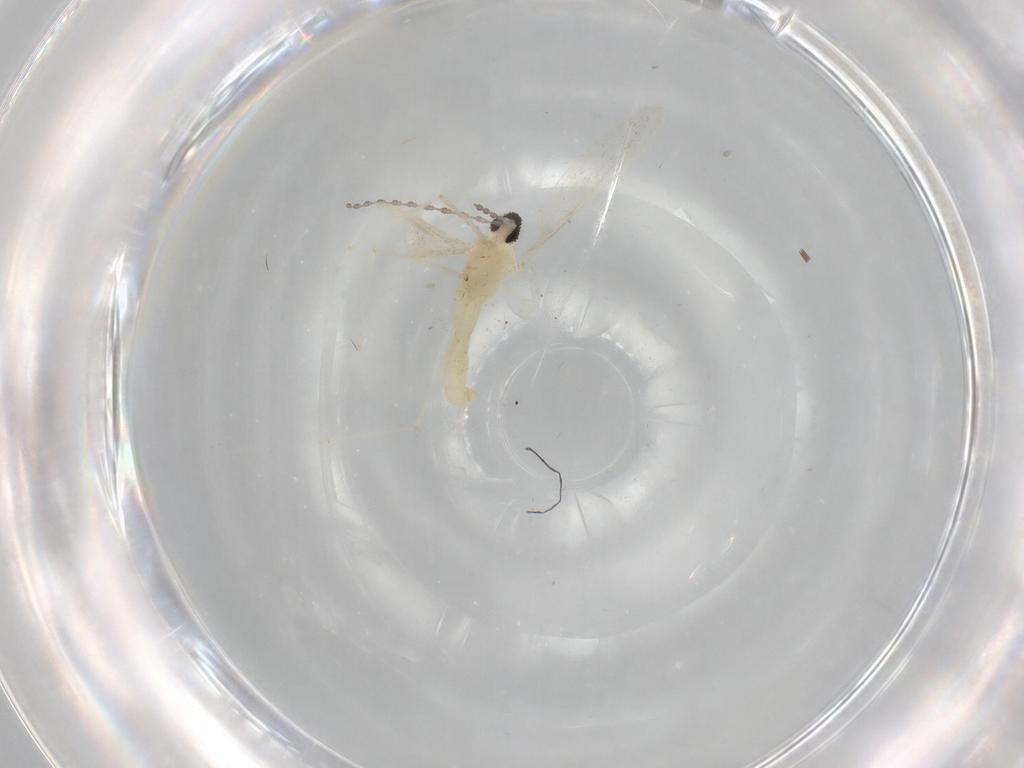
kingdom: Animalia
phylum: Arthropoda
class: Insecta
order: Diptera
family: Cecidomyiidae
